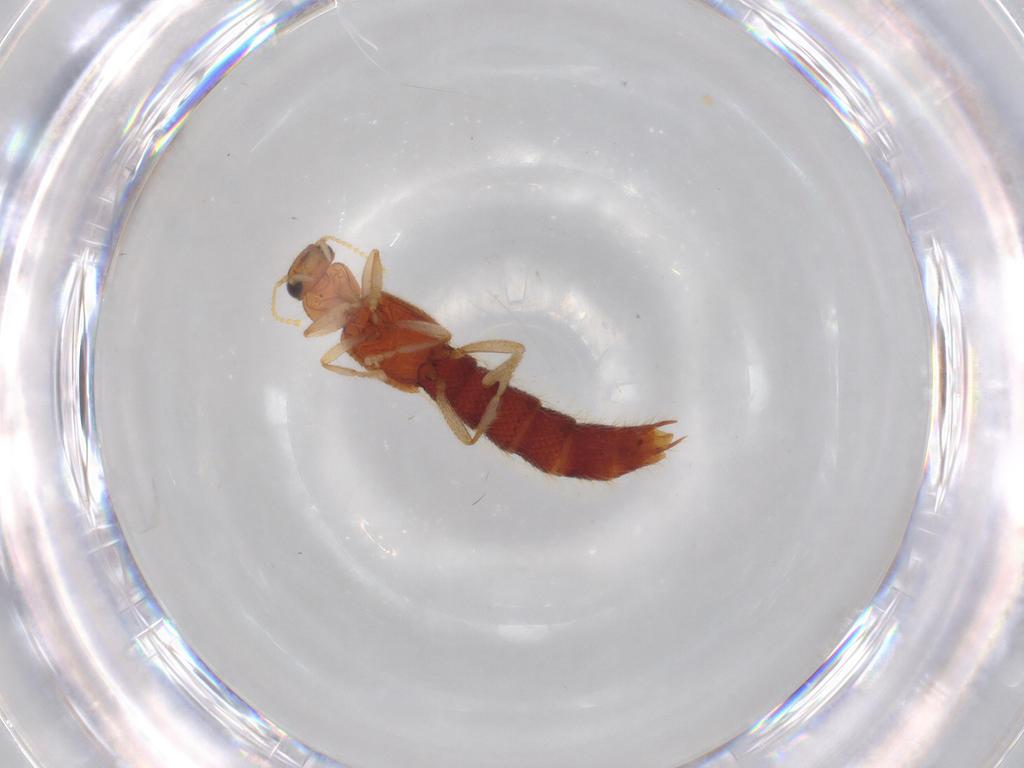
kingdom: Animalia
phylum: Arthropoda
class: Insecta
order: Coleoptera
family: Staphylinidae
